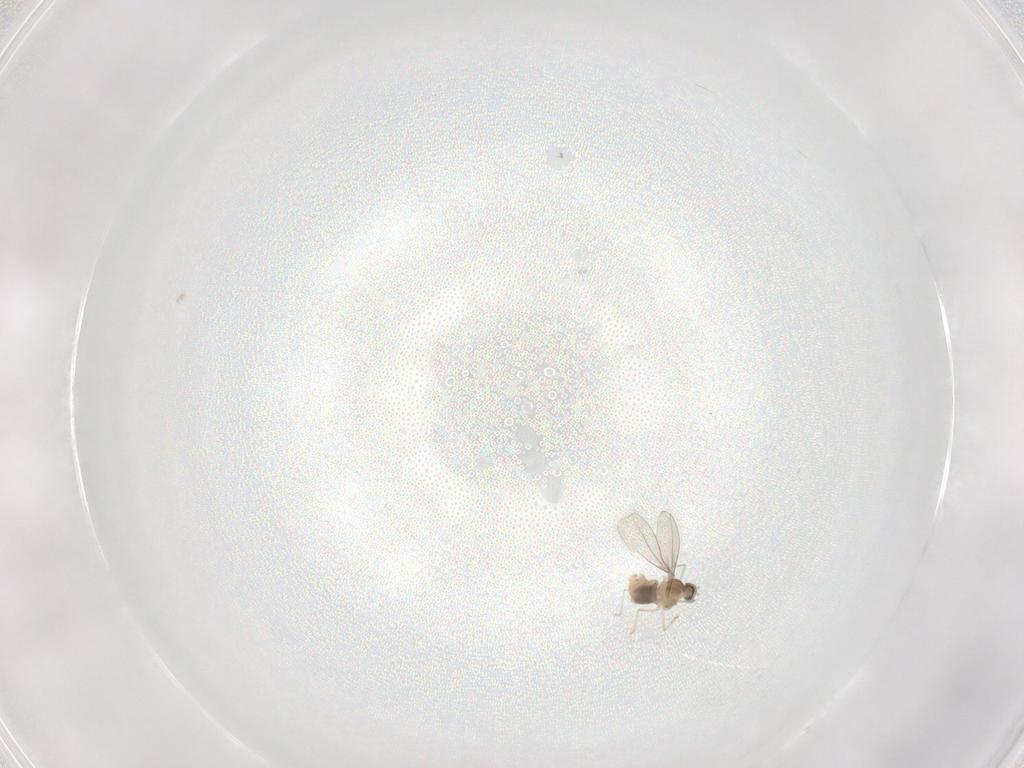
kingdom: Animalia
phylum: Arthropoda
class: Insecta
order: Diptera
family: Cecidomyiidae
